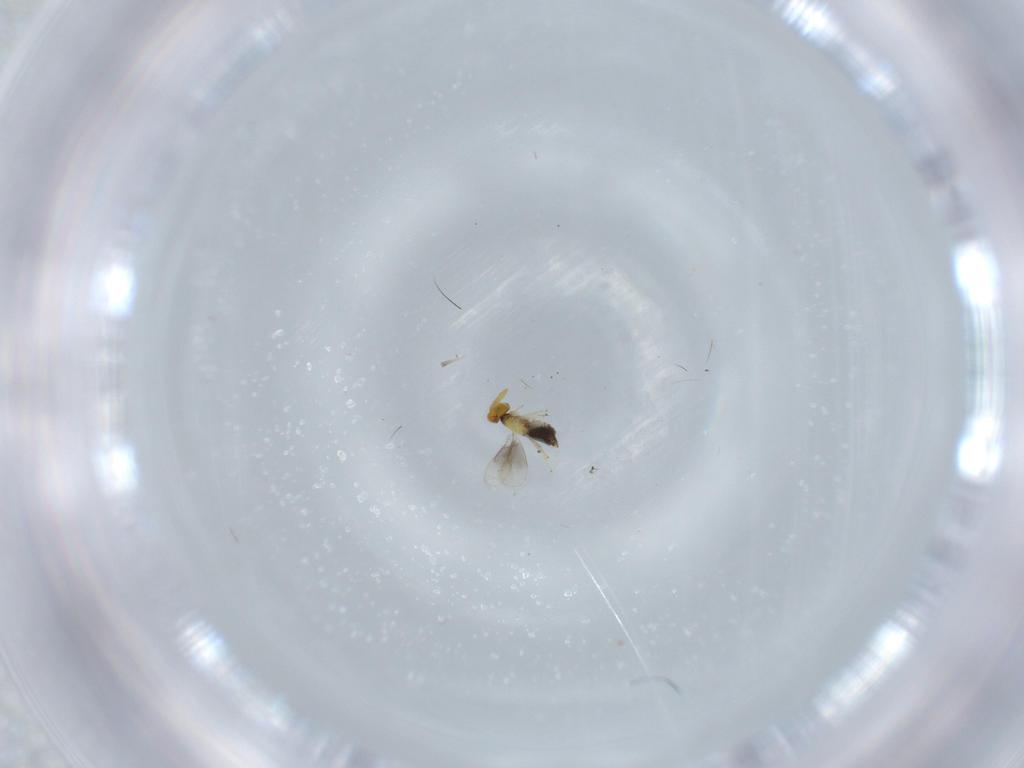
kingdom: Animalia
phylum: Arthropoda
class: Insecta
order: Hymenoptera
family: Aphelinidae
